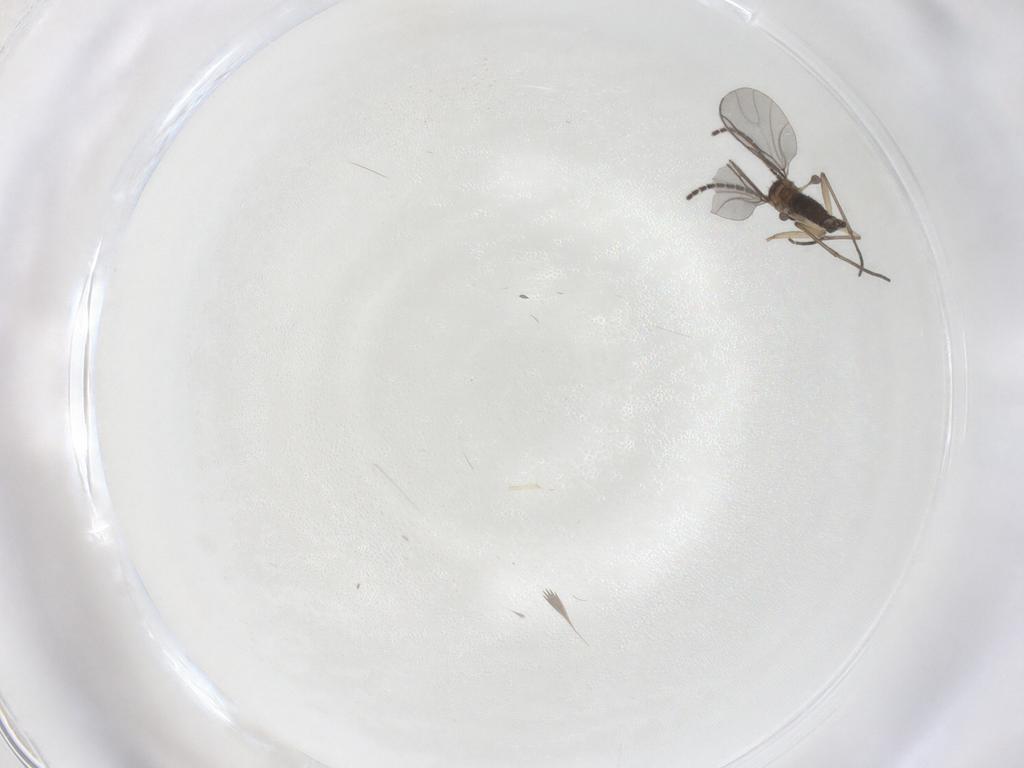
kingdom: Animalia
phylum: Arthropoda
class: Insecta
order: Diptera
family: Sciaridae
